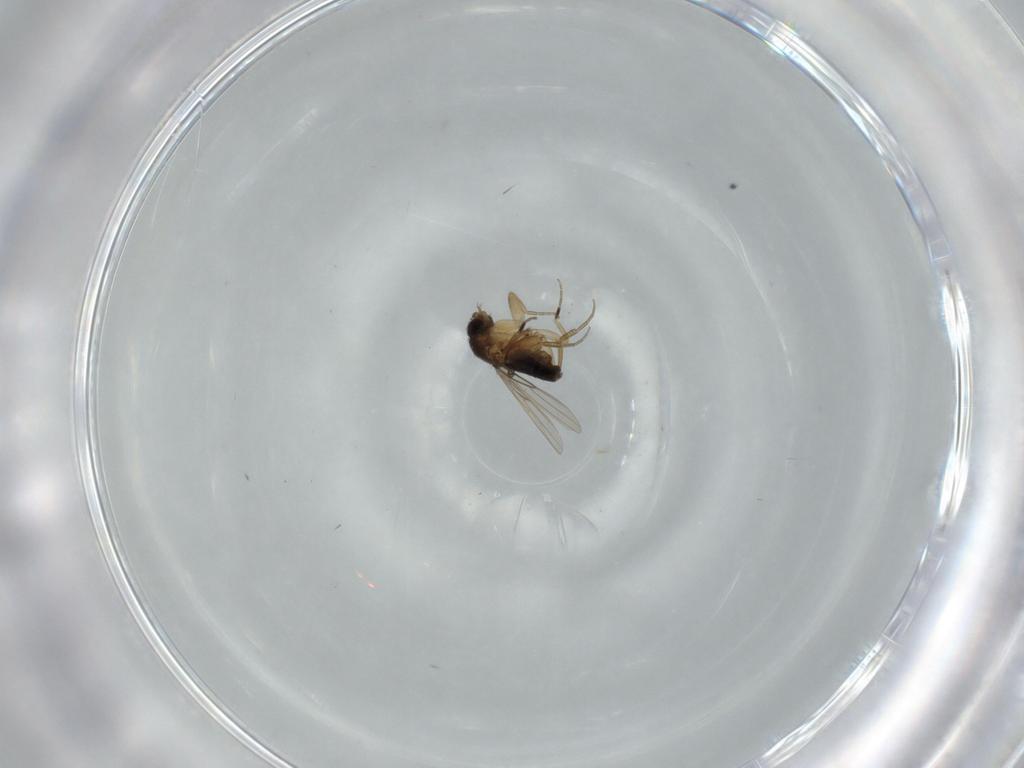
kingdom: Animalia
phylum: Arthropoda
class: Insecta
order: Diptera
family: Phoridae
